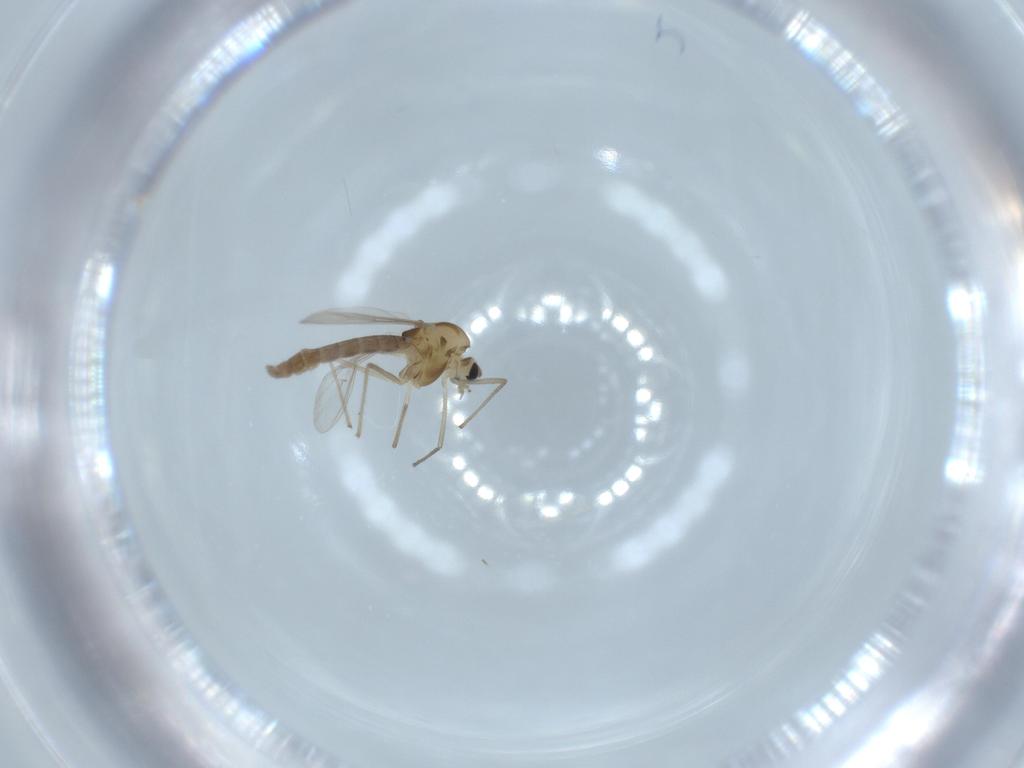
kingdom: Animalia
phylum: Arthropoda
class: Insecta
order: Diptera
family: Chironomidae
